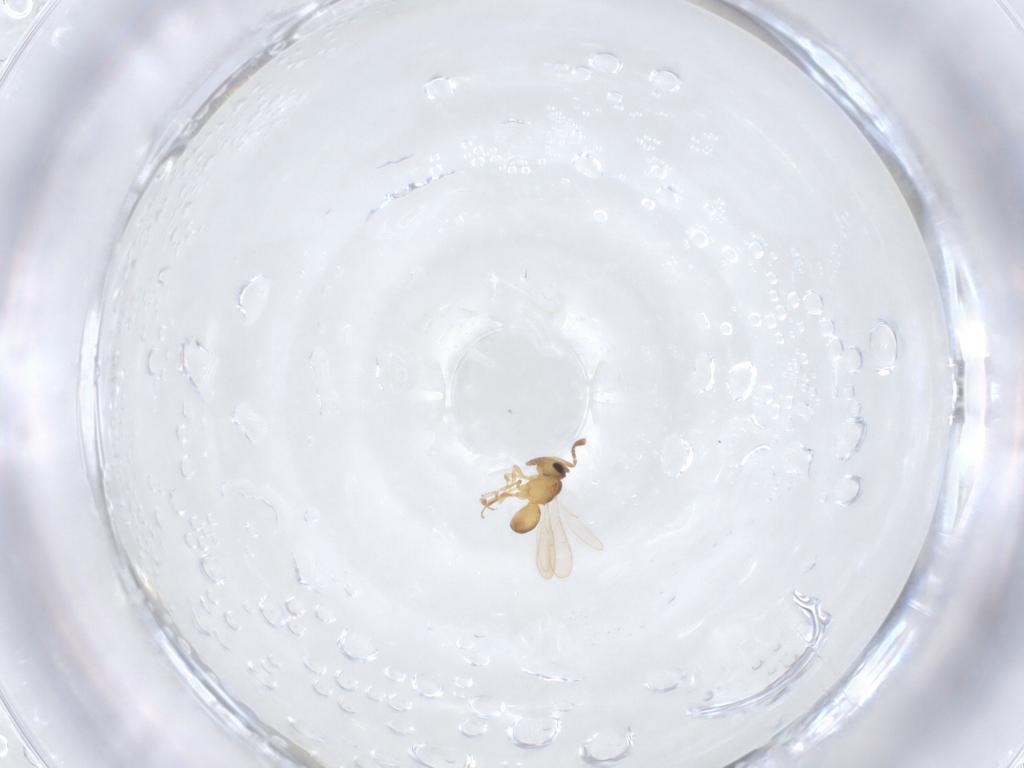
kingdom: Animalia
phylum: Arthropoda
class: Insecta
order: Hymenoptera
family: Scelionidae
